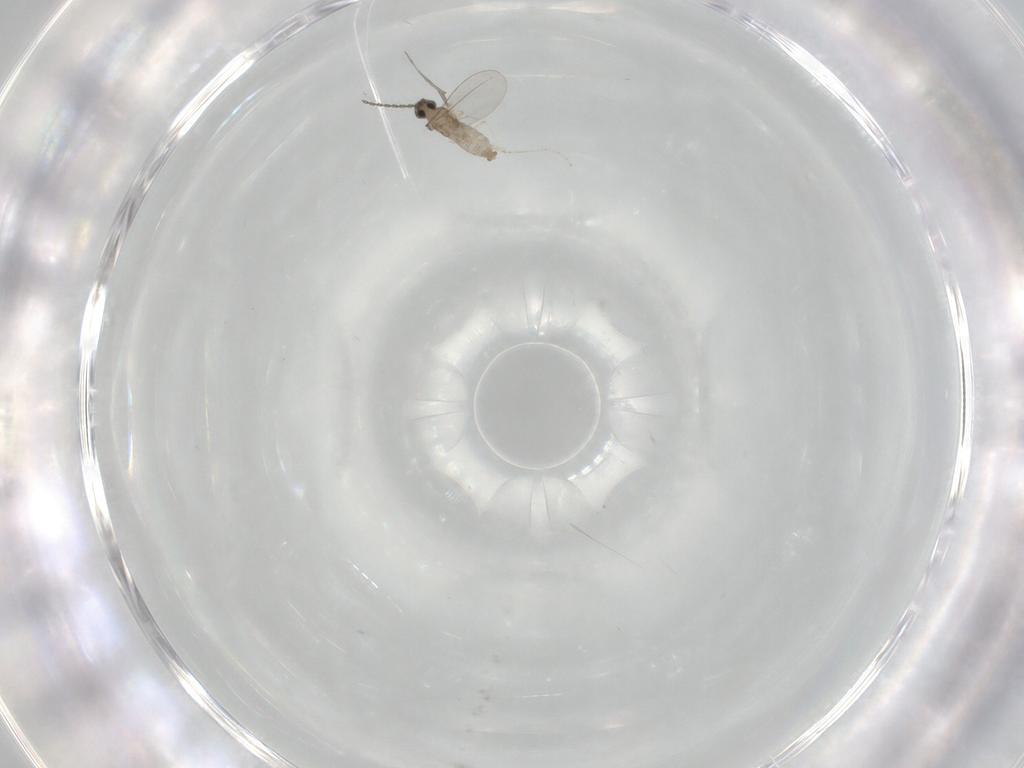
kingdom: Animalia
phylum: Arthropoda
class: Insecta
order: Diptera
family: Cecidomyiidae
